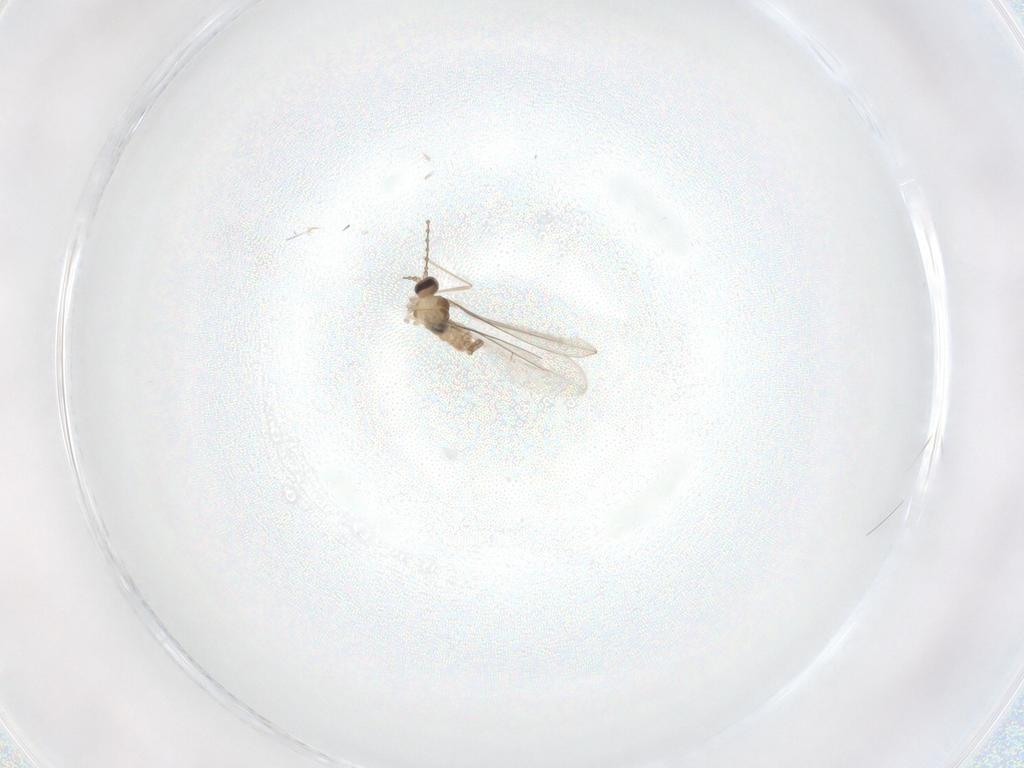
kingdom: Animalia
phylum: Arthropoda
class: Insecta
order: Diptera
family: Cecidomyiidae
